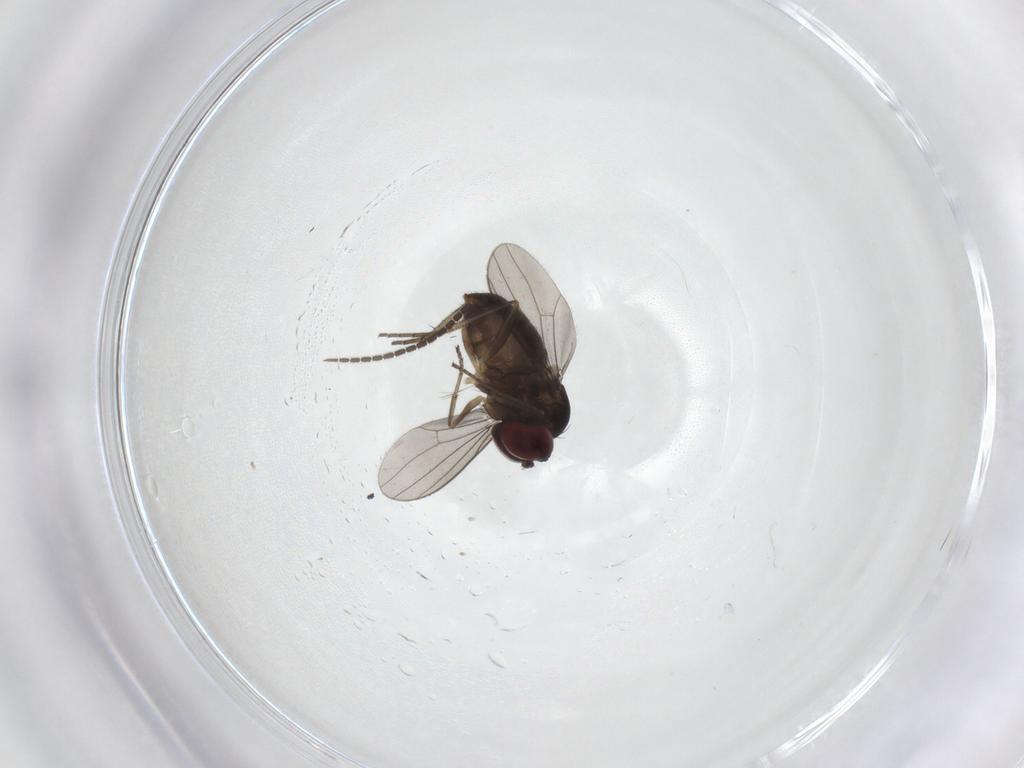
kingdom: Animalia
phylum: Arthropoda
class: Insecta
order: Diptera
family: Sciaridae
